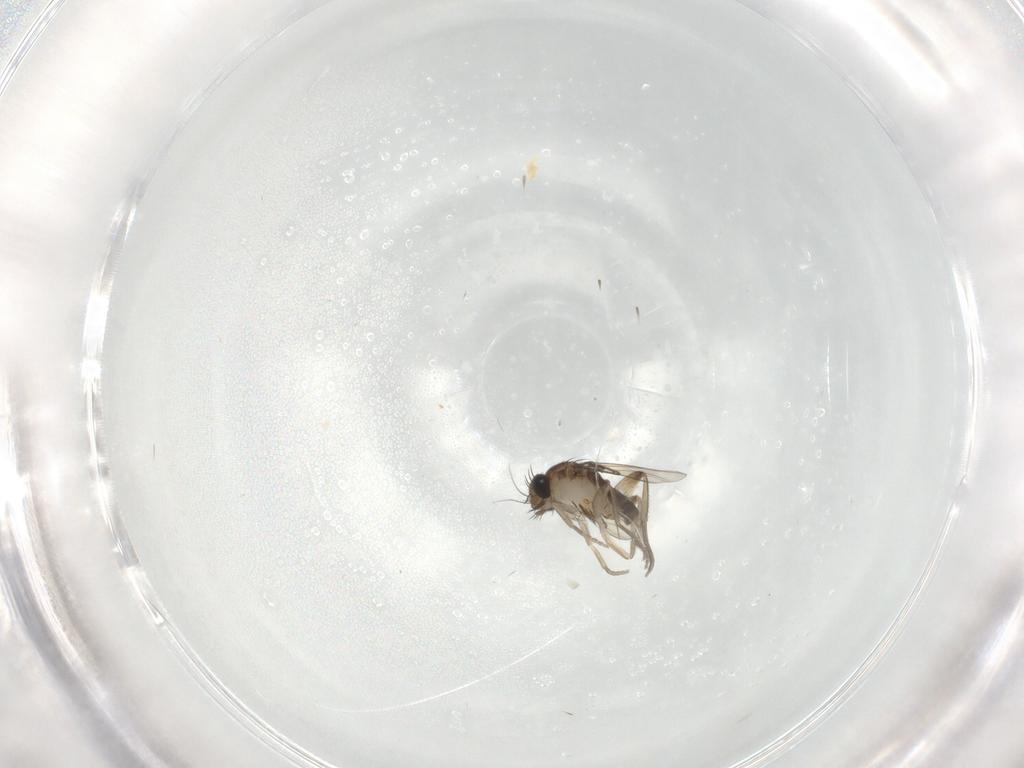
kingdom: Animalia
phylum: Arthropoda
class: Insecta
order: Diptera
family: Phoridae
